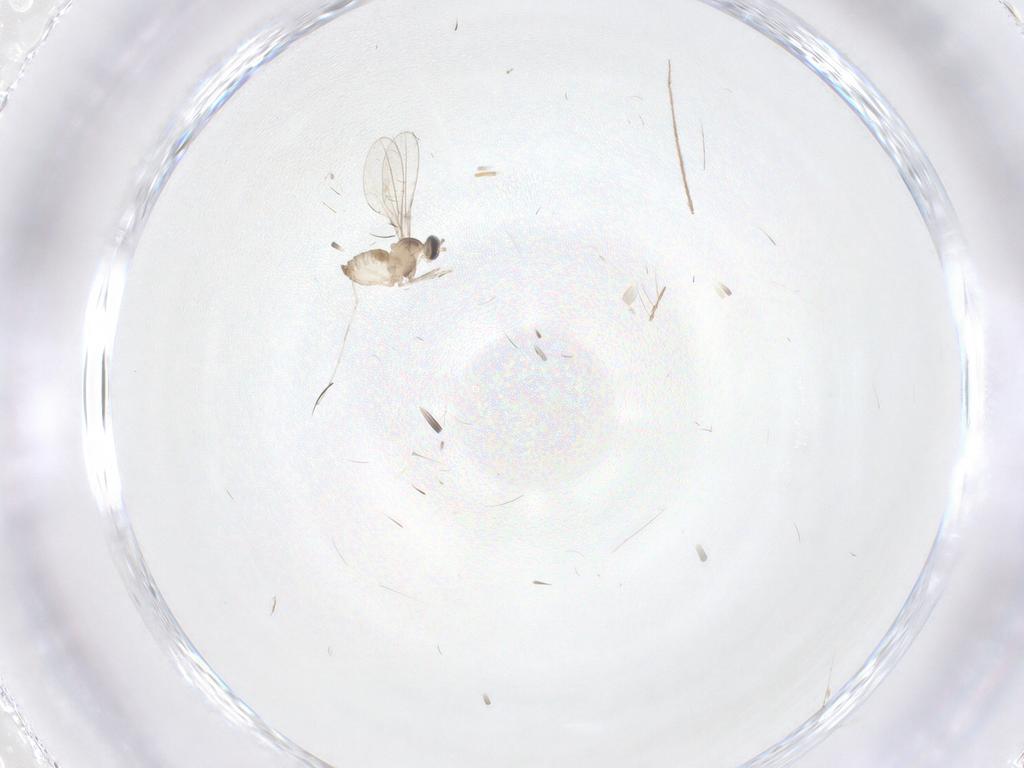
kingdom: Animalia
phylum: Arthropoda
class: Insecta
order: Diptera
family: Cecidomyiidae
